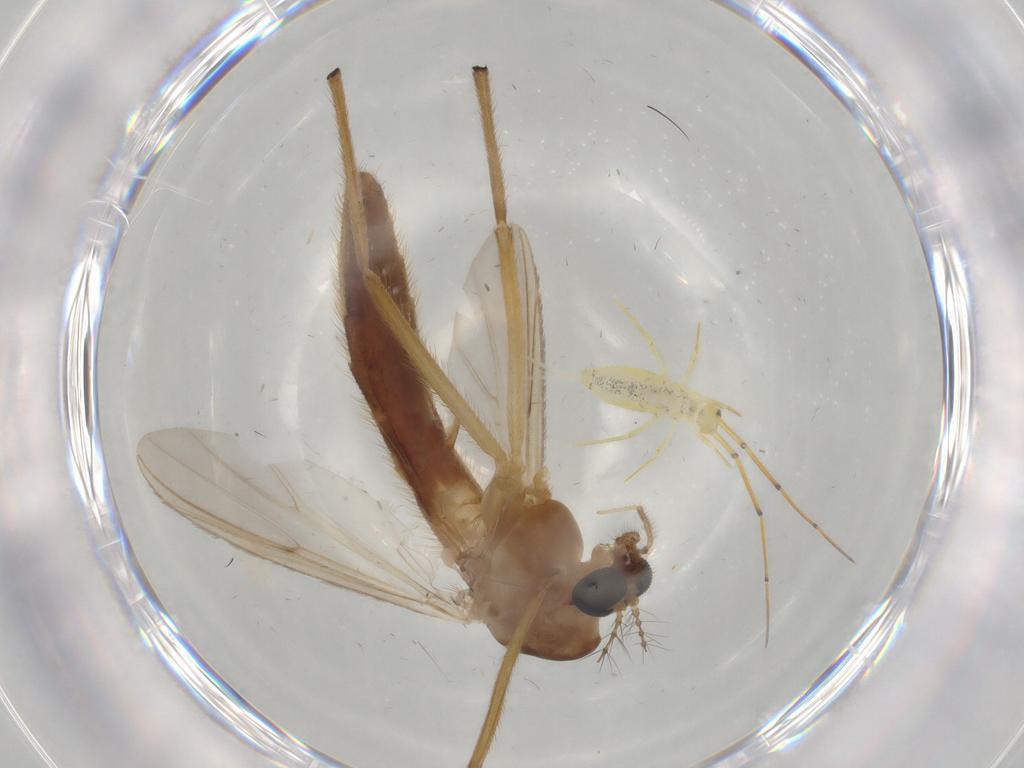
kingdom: Animalia
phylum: Arthropoda
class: Insecta
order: Diptera
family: Chironomidae
